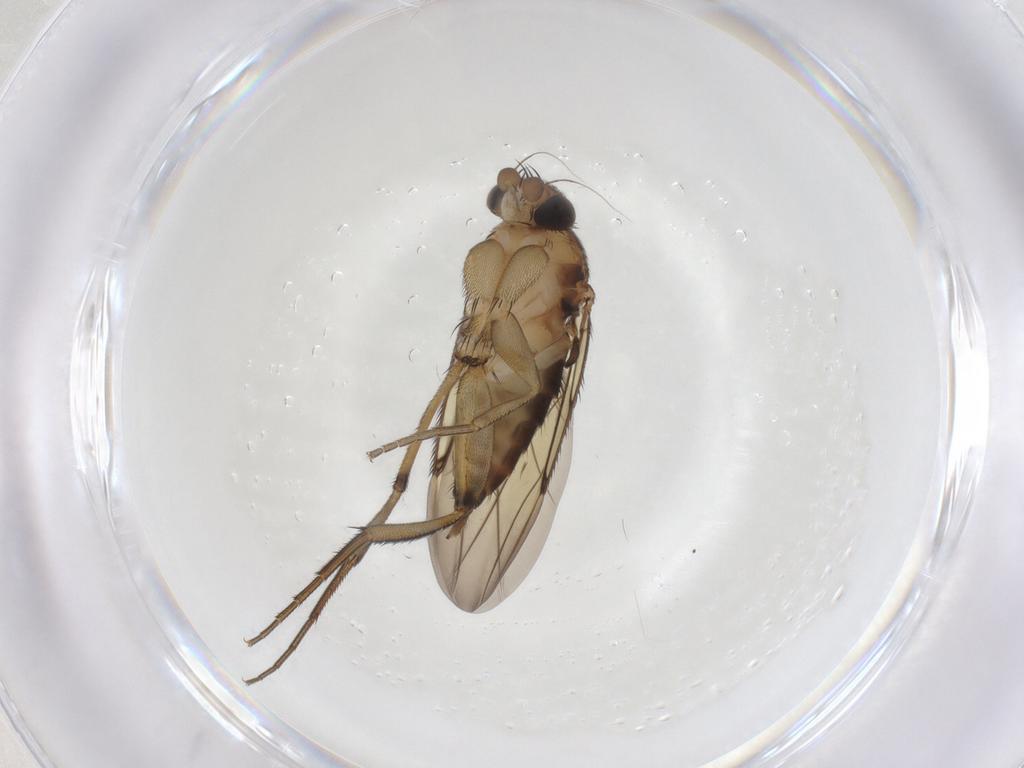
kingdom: Animalia
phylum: Arthropoda
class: Insecta
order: Diptera
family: Phoridae
